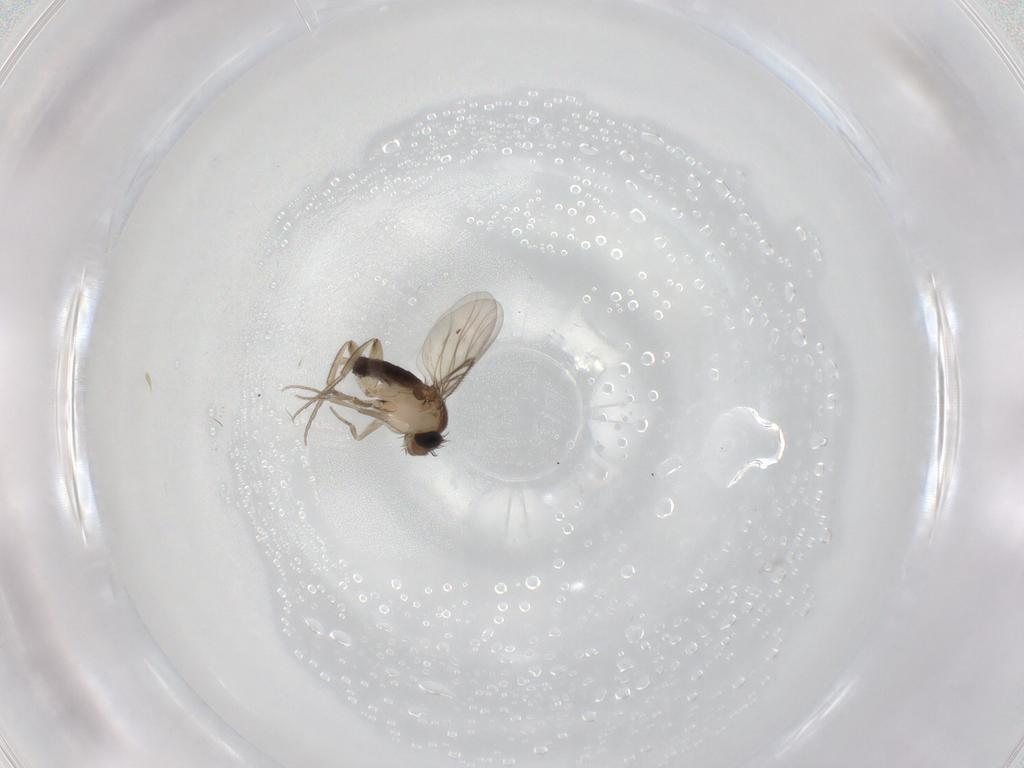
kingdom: Animalia
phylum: Arthropoda
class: Insecta
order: Diptera
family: Phoridae
